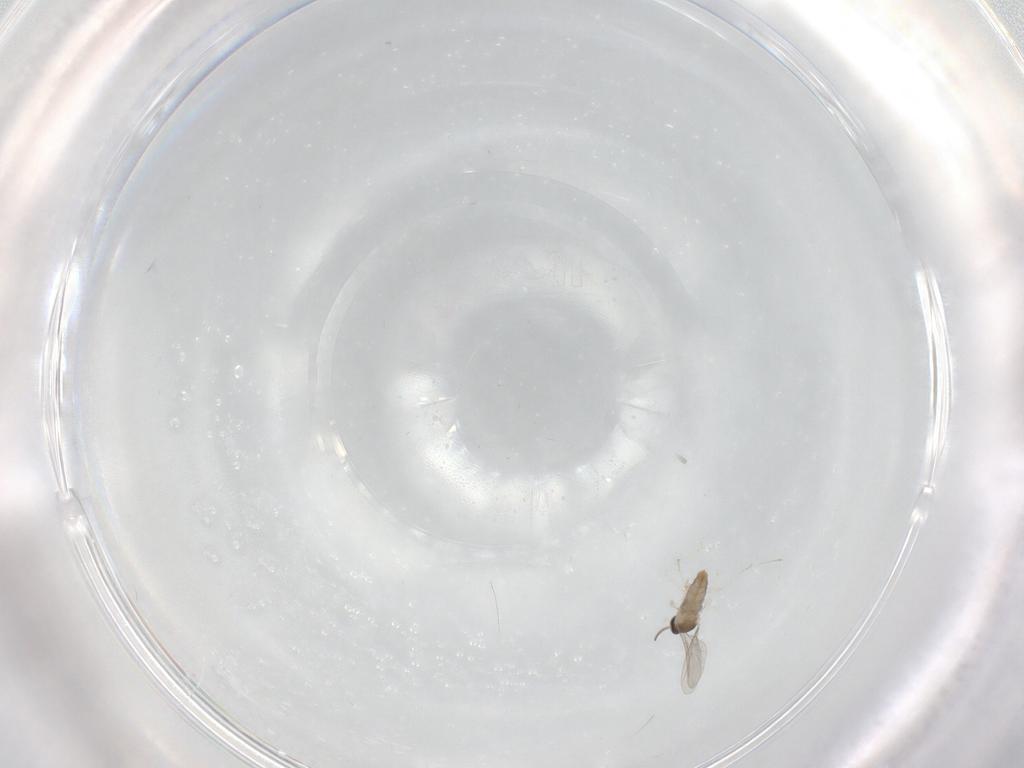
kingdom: Animalia
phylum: Arthropoda
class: Insecta
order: Diptera
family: Cecidomyiidae
